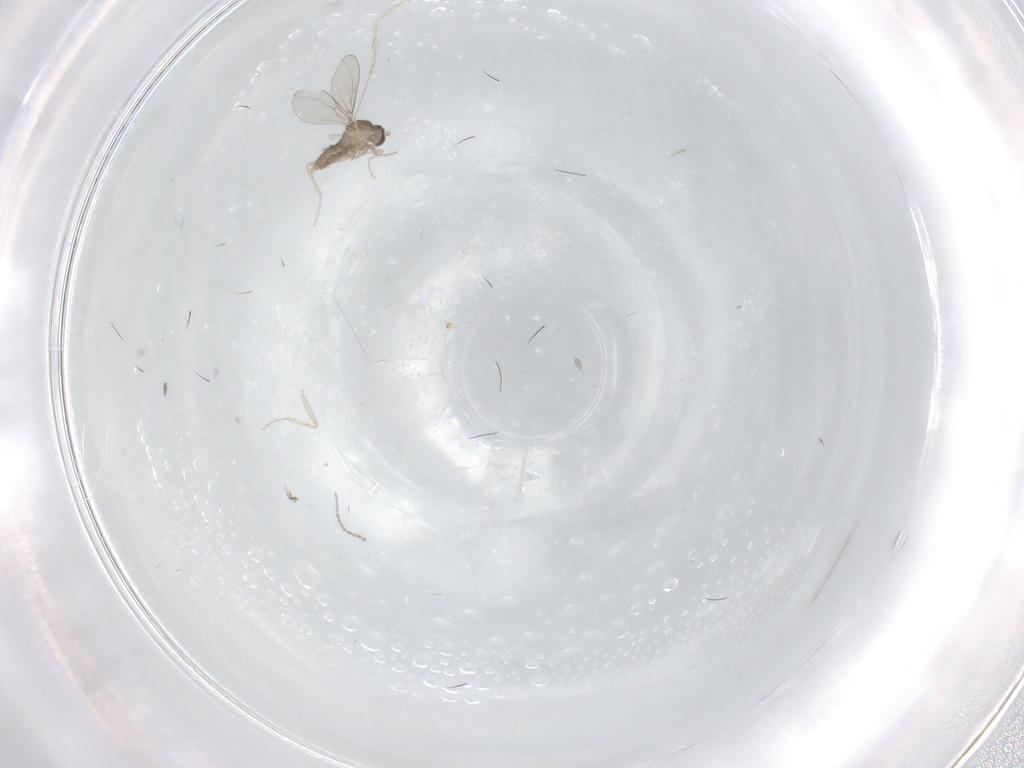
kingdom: Animalia
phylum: Arthropoda
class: Insecta
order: Diptera
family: Cecidomyiidae
